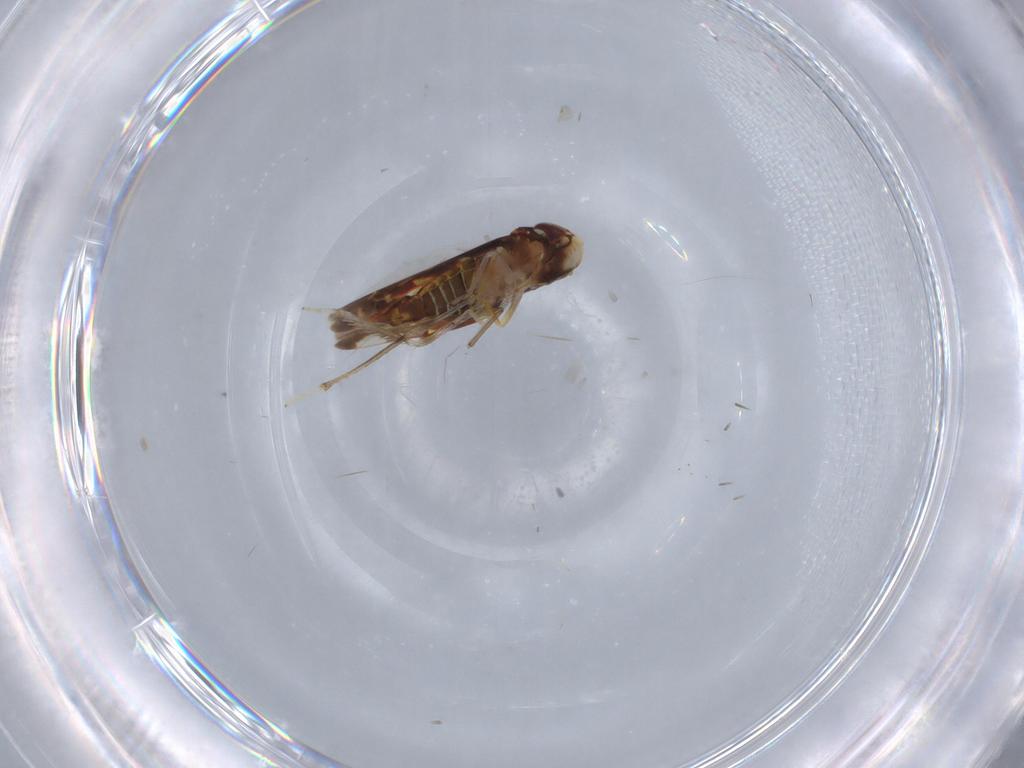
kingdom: Animalia
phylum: Arthropoda
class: Insecta
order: Hemiptera
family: Cicadellidae
